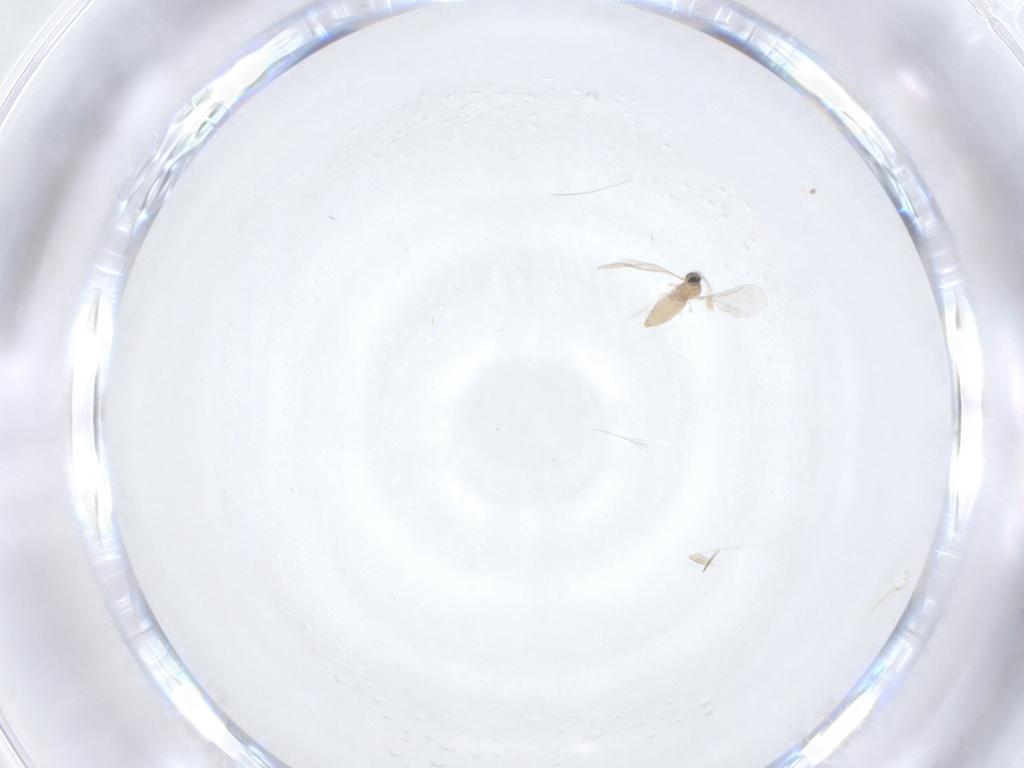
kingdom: Animalia
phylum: Arthropoda
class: Insecta
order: Diptera
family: Cecidomyiidae
